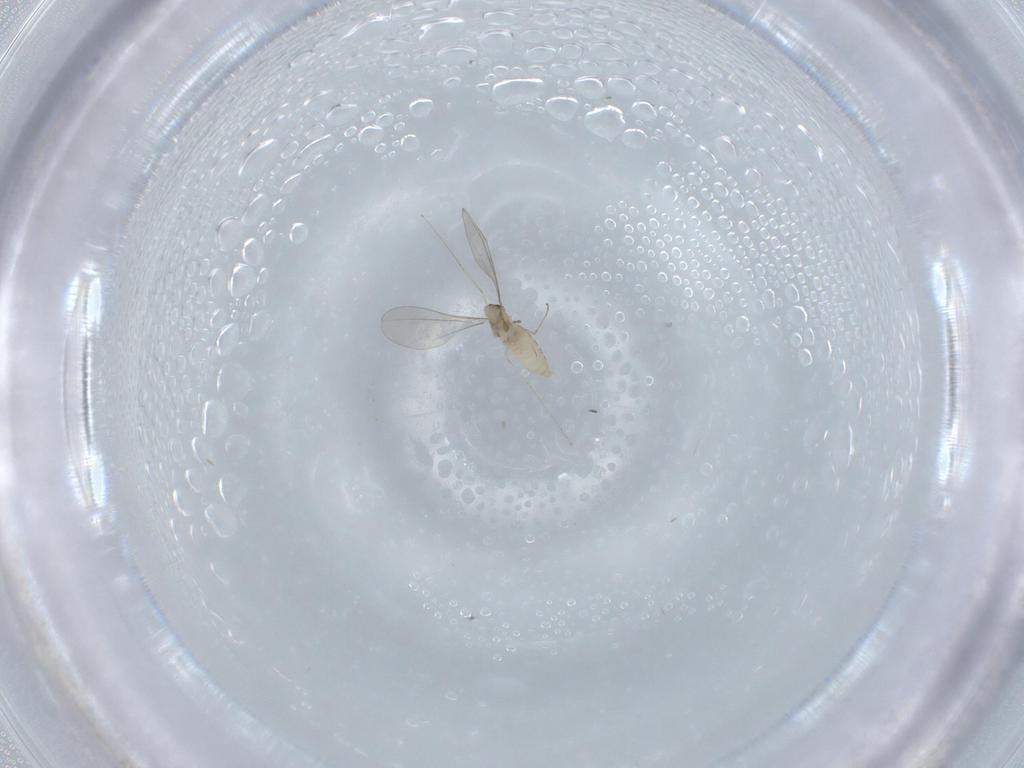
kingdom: Animalia
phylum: Arthropoda
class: Insecta
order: Diptera
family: Cecidomyiidae
